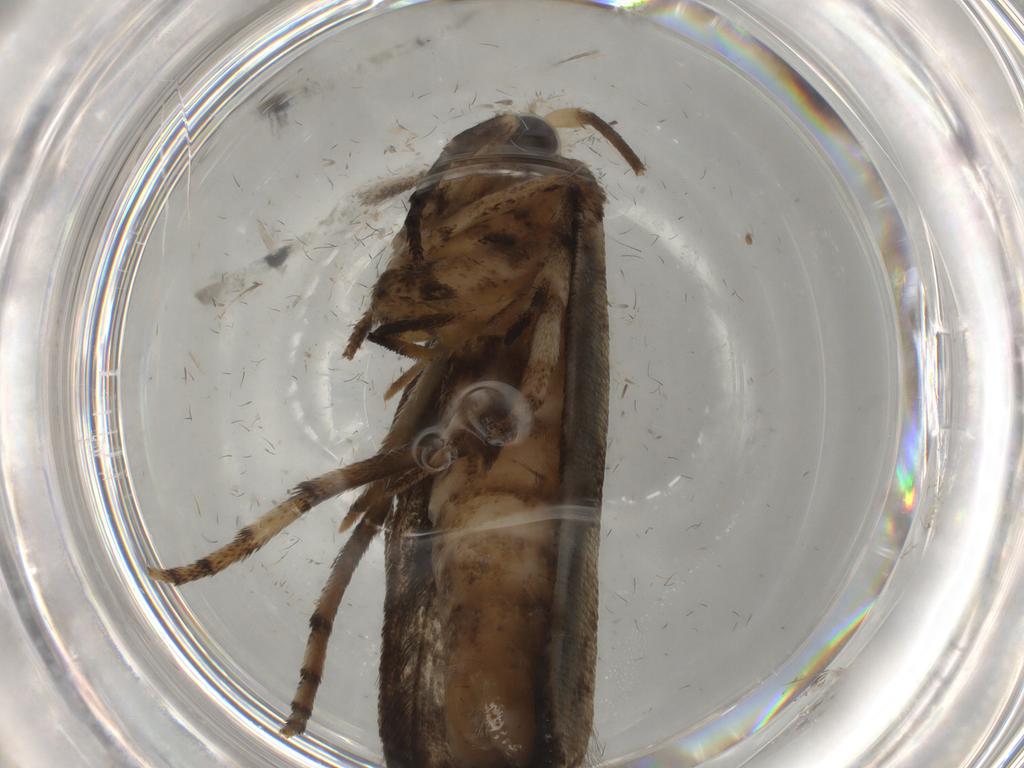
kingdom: Animalia
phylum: Arthropoda
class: Insecta
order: Lepidoptera
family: Yponomeutidae
